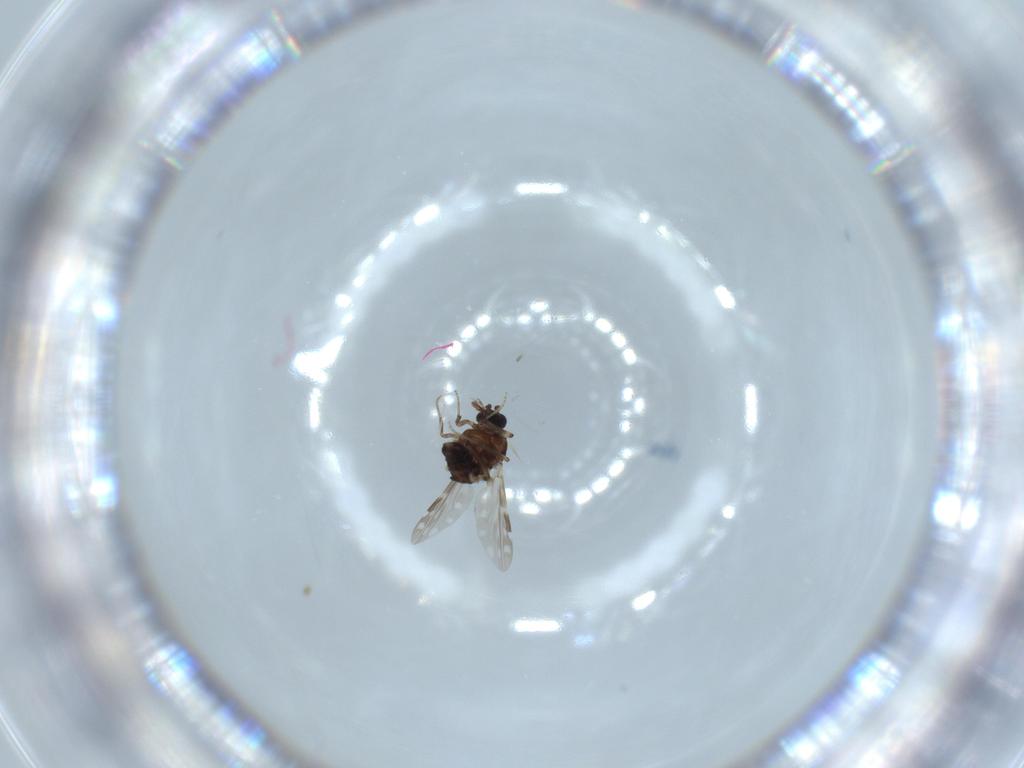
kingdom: Animalia
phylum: Arthropoda
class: Insecta
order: Diptera
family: Ceratopogonidae
